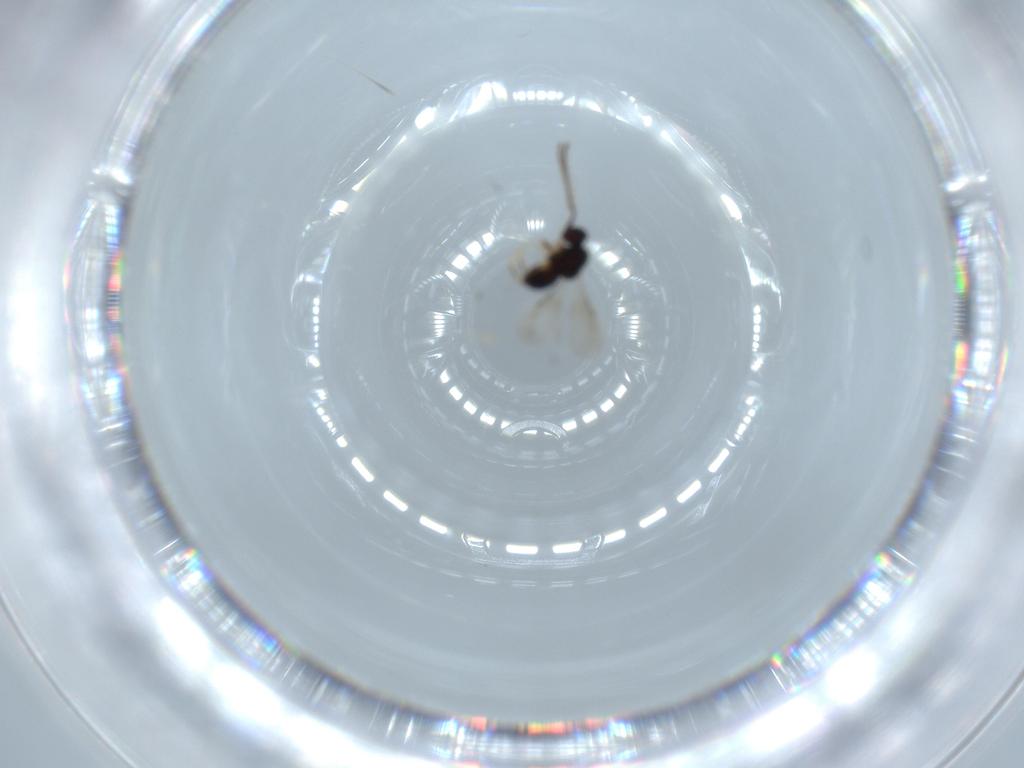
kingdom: Animalia
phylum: Arthropoda
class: Insecta
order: Hymenoptera
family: Ceraphronidae
